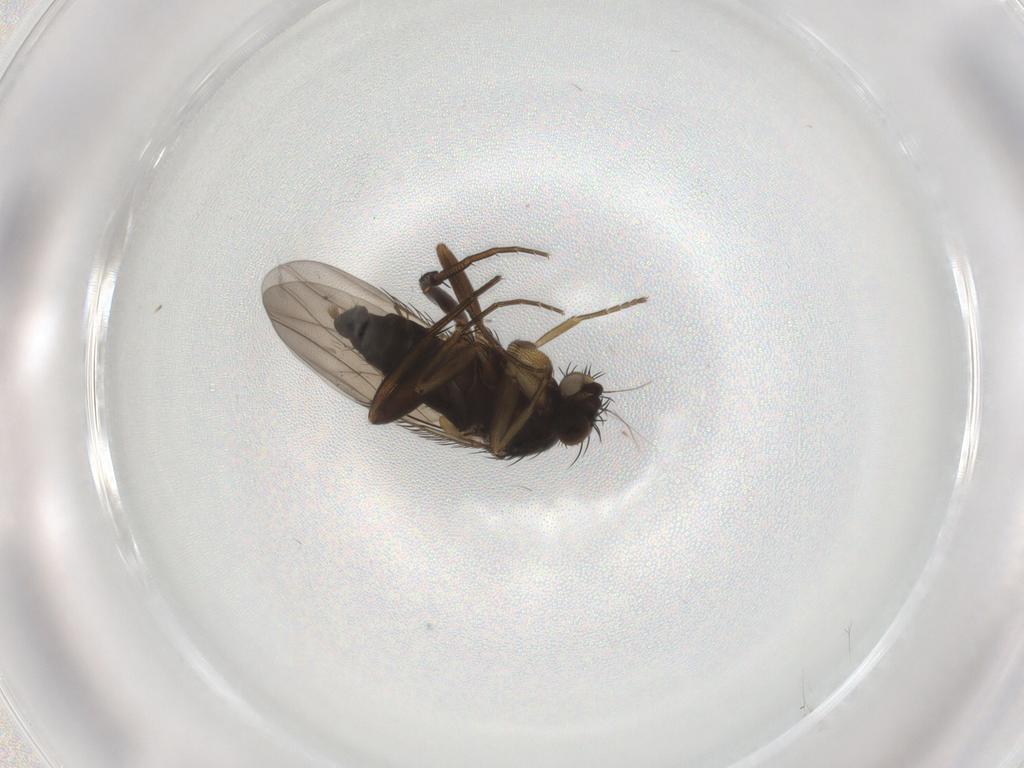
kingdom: Animalia
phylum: Arthropoda
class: Insecta
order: Diptera
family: Phoridae
